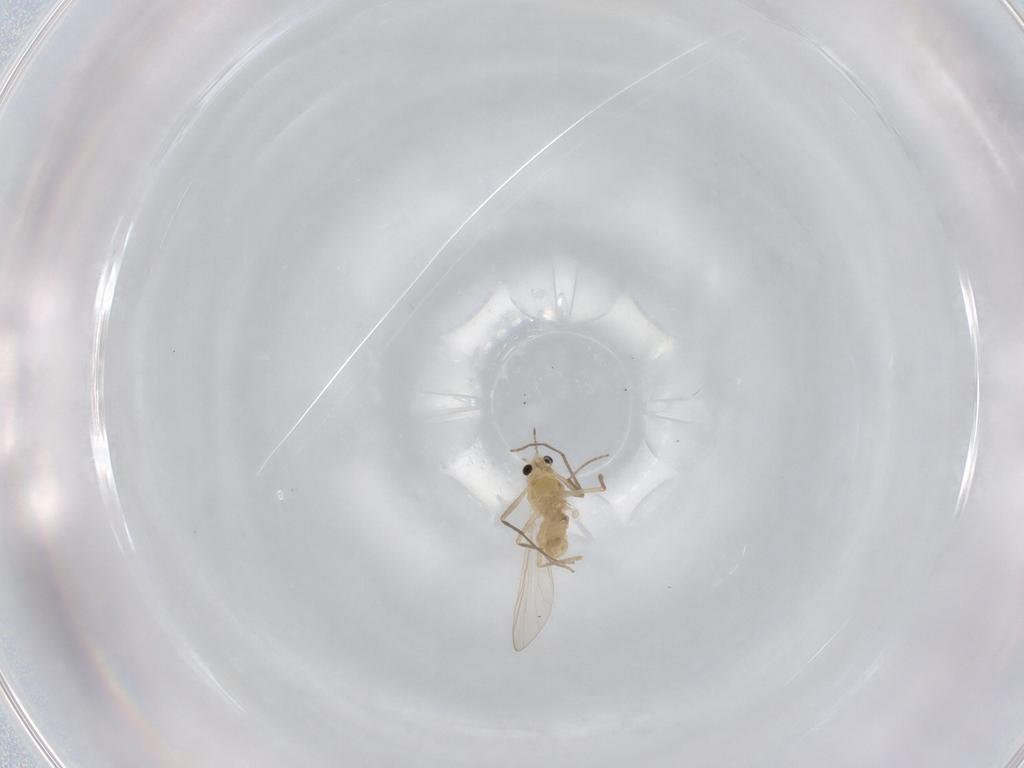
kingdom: Animalia
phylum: Arthropoda
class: Insecta
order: Diptera
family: Chironomidae
